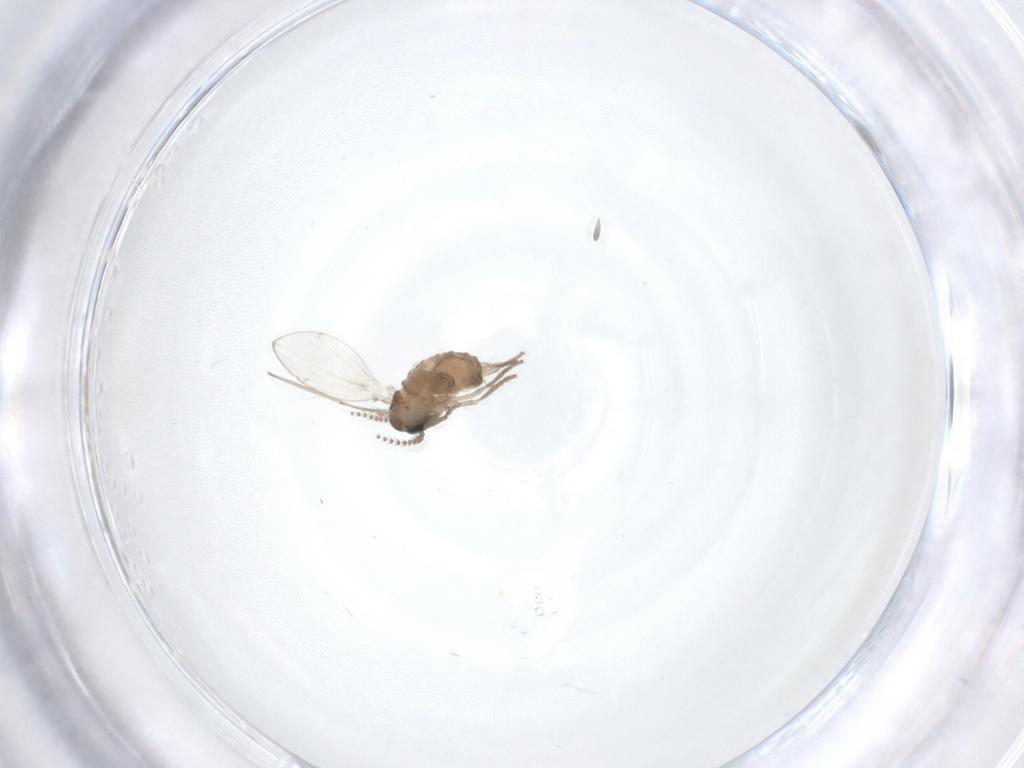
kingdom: Animalia
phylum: Arthropoda
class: Insecta
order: Diptera
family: Psychodidae
